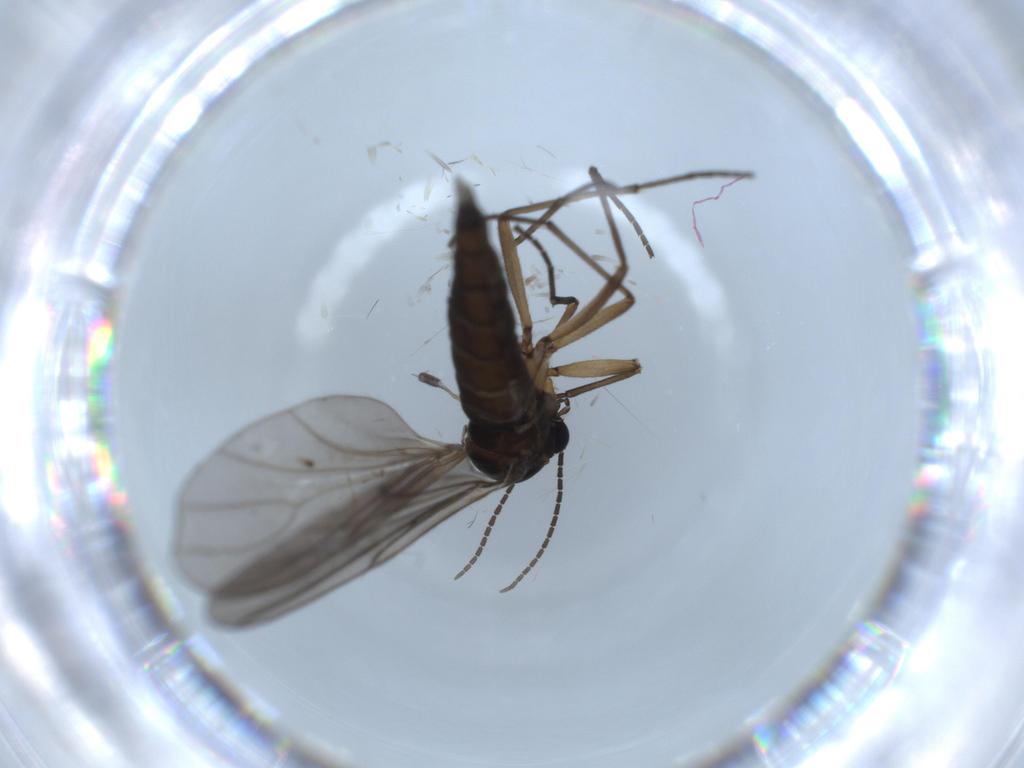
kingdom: Animalia
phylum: Arthropoda
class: Insecta
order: Diptera
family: Sciaridae
